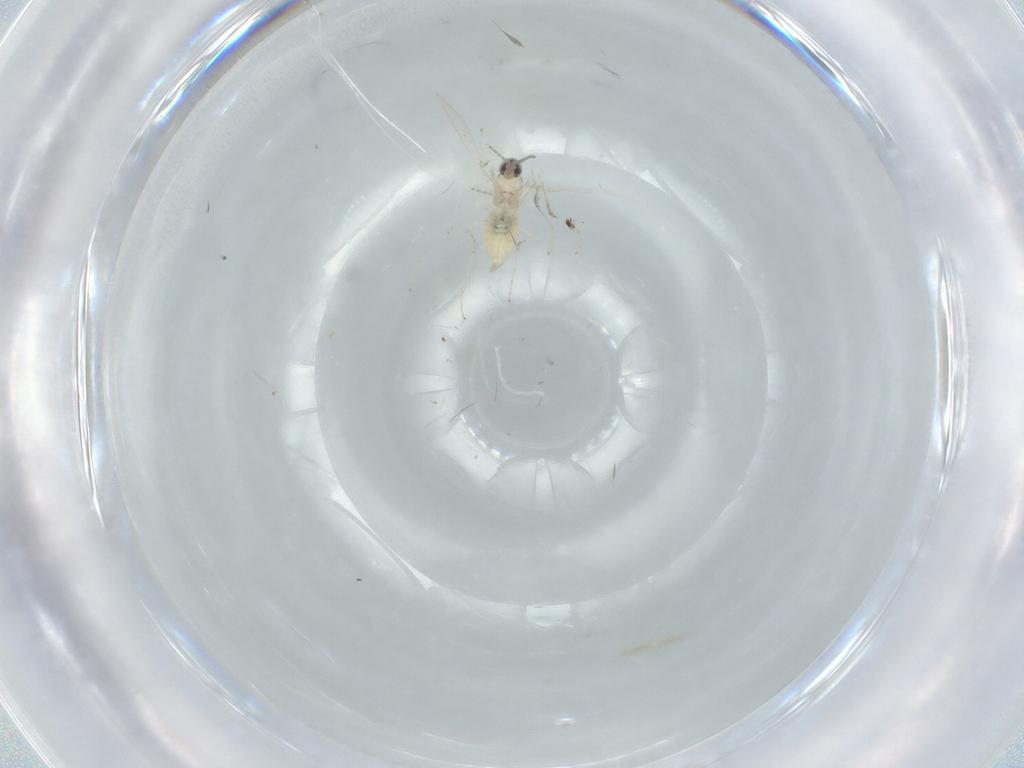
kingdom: Animalia
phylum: Arthropoda
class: Insecta
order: Diptera
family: Cecidomyiidae
